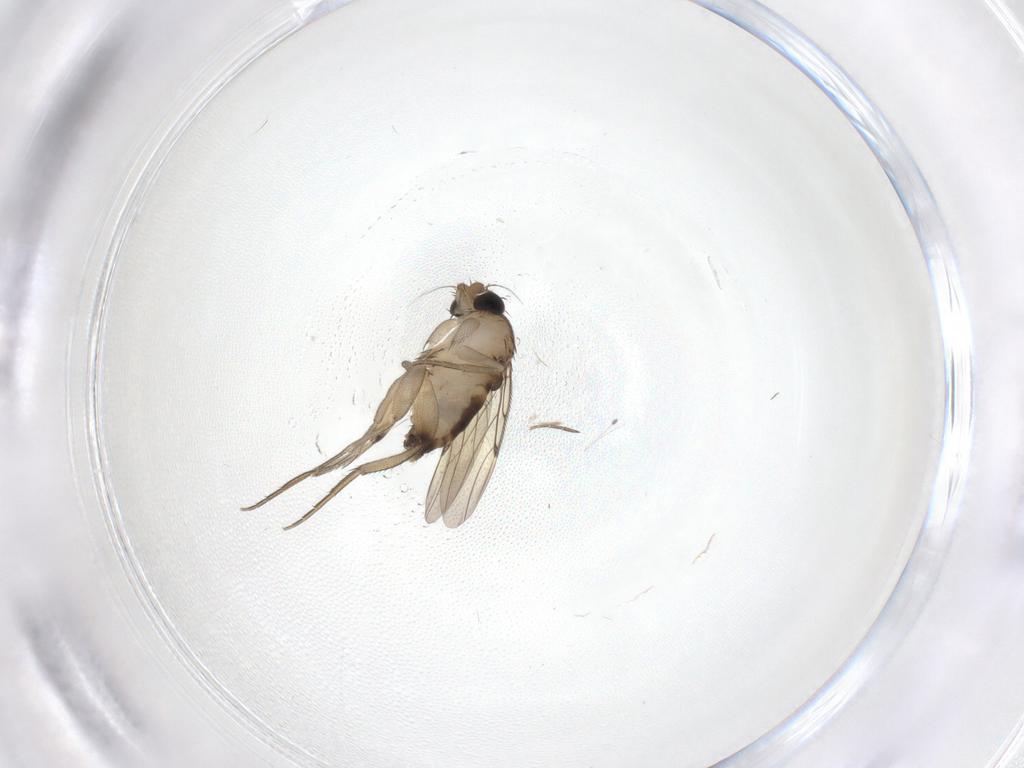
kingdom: Animalia
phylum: Arthropoda
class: Insecta
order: Diptera
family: Phoridae
